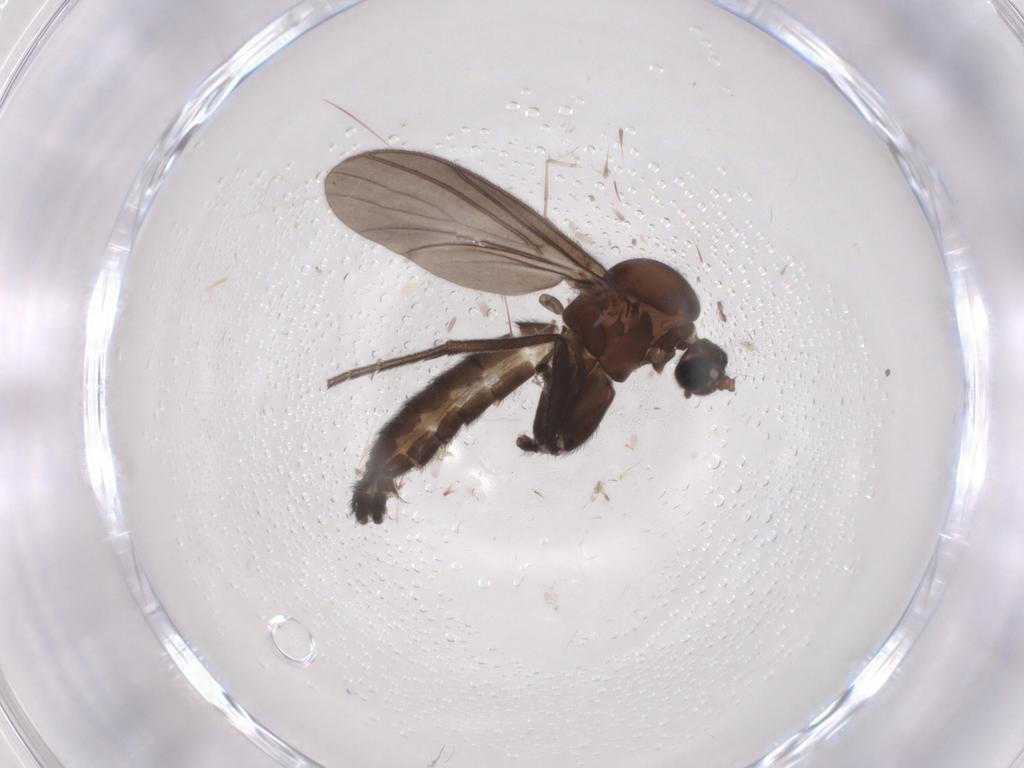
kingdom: Animalia
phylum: Arthropoda
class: Insecta
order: Diptera
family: Mycetophilidae
